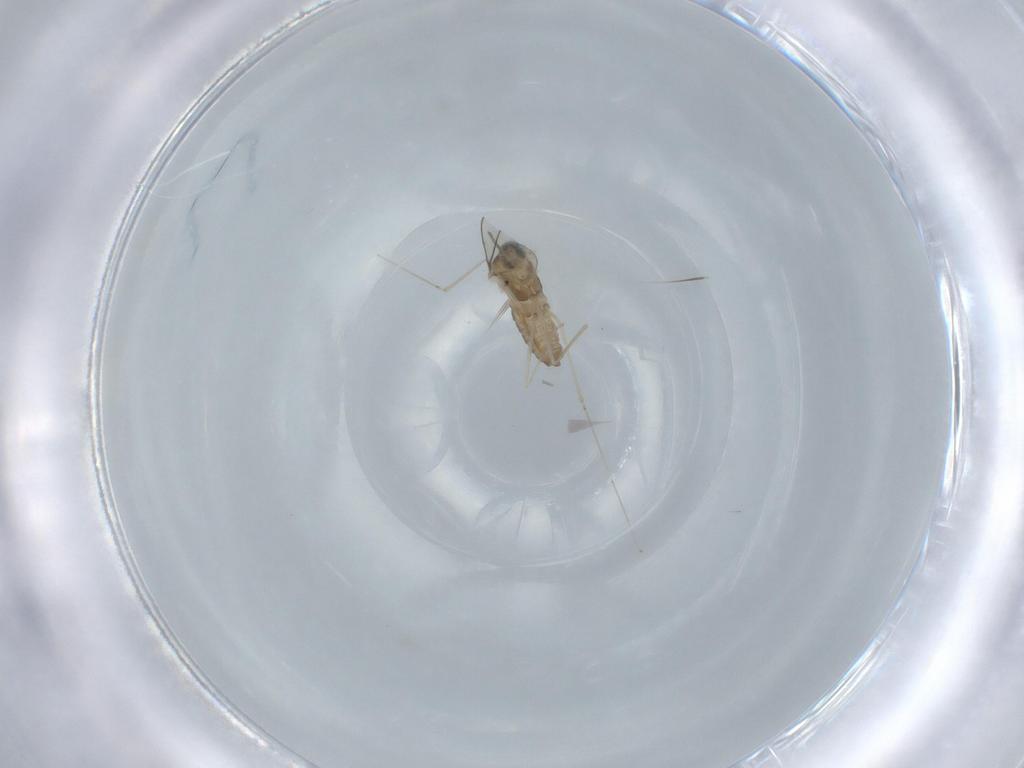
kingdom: Animalia
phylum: Arthropoda
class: Insecta
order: Diptera
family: Cecidomyiidae
